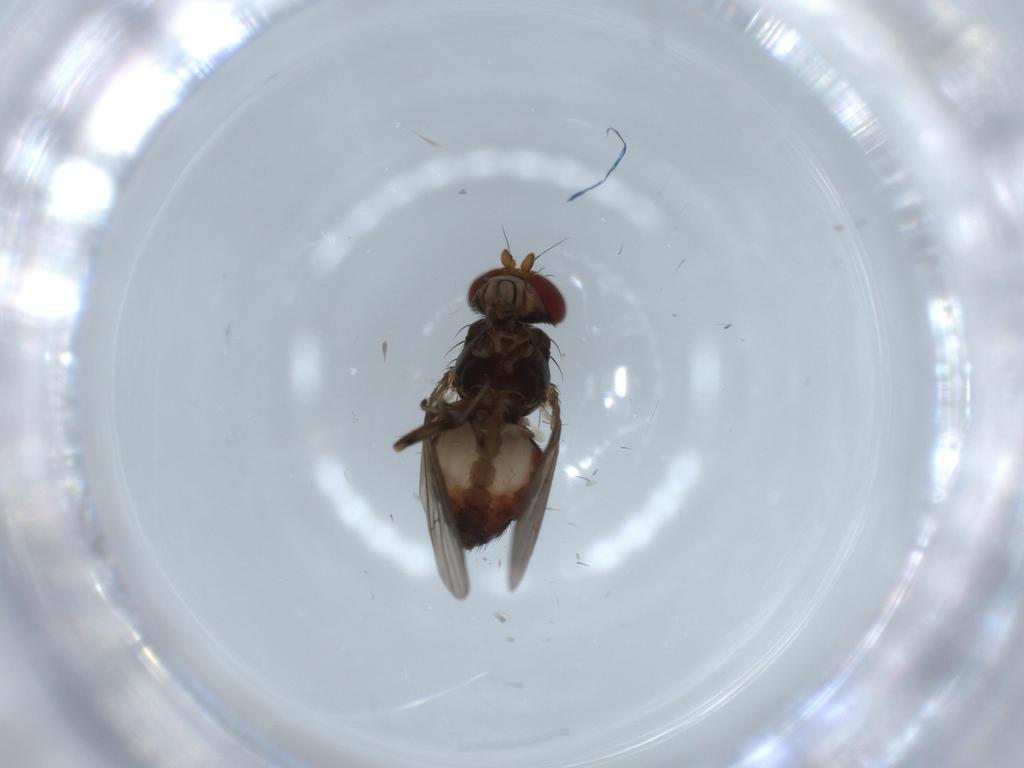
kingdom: Animalia
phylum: Arthropoda
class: Insecta
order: Diptera
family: Heleomyzidae
